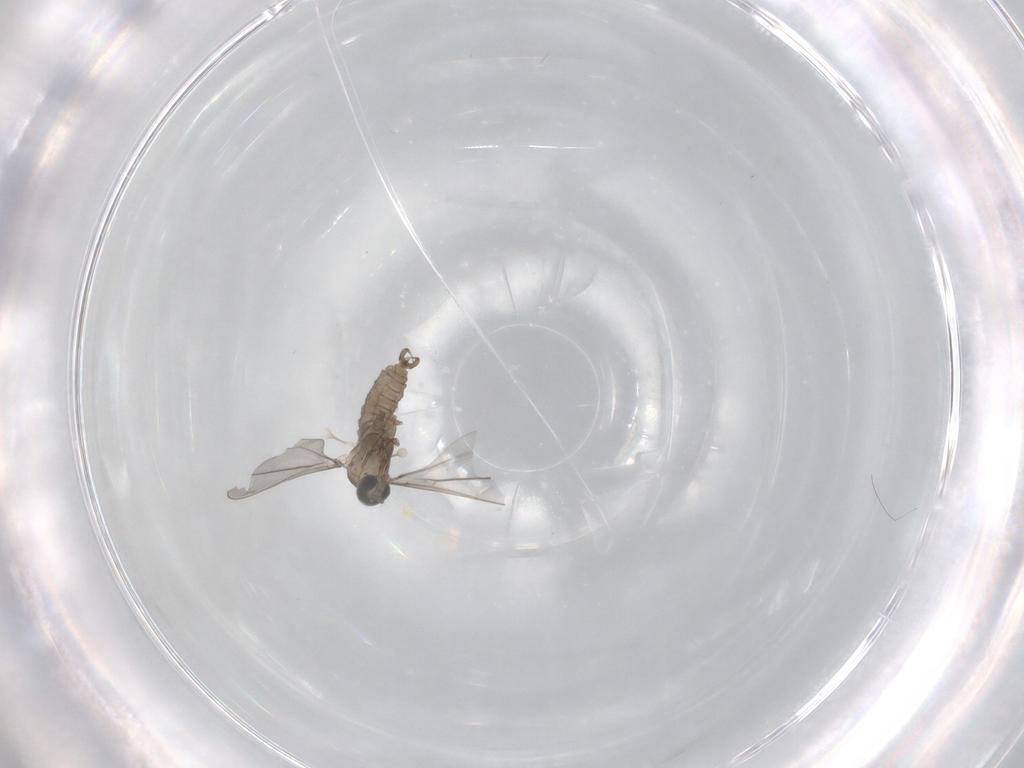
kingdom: Animalia
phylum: Arthropoda
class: Insecta
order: Diptera
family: Cecidomyiidae
